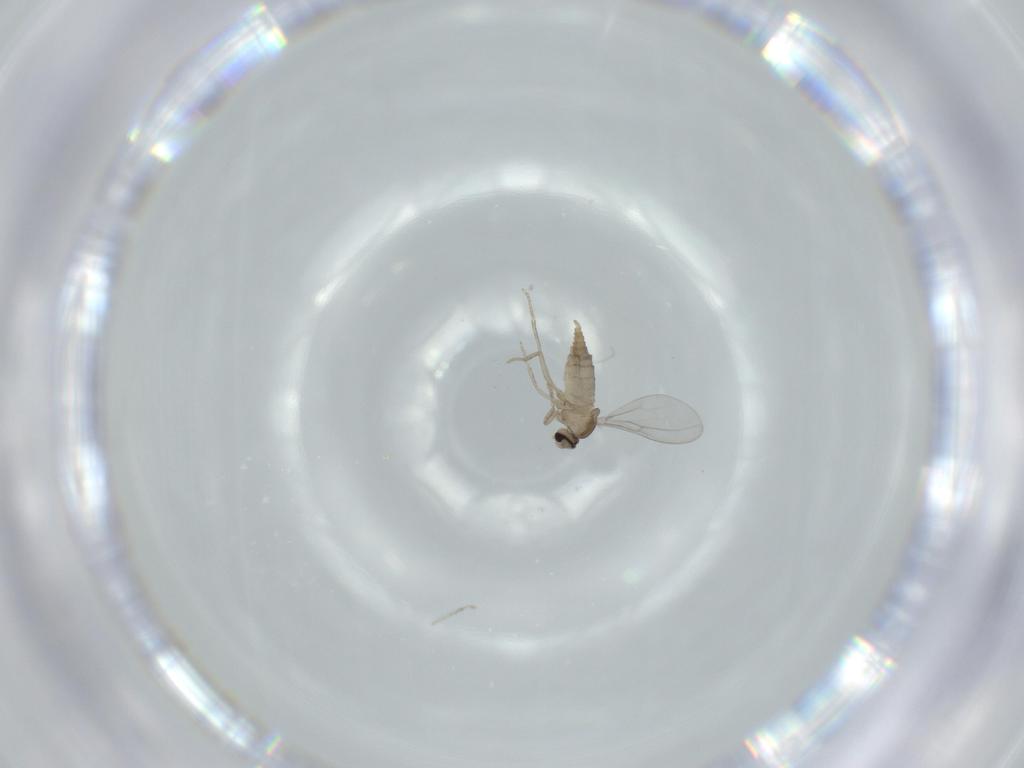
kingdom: Animalia
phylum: Arthropoda
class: Insecta
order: Diptera
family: Cecidomyiidae
